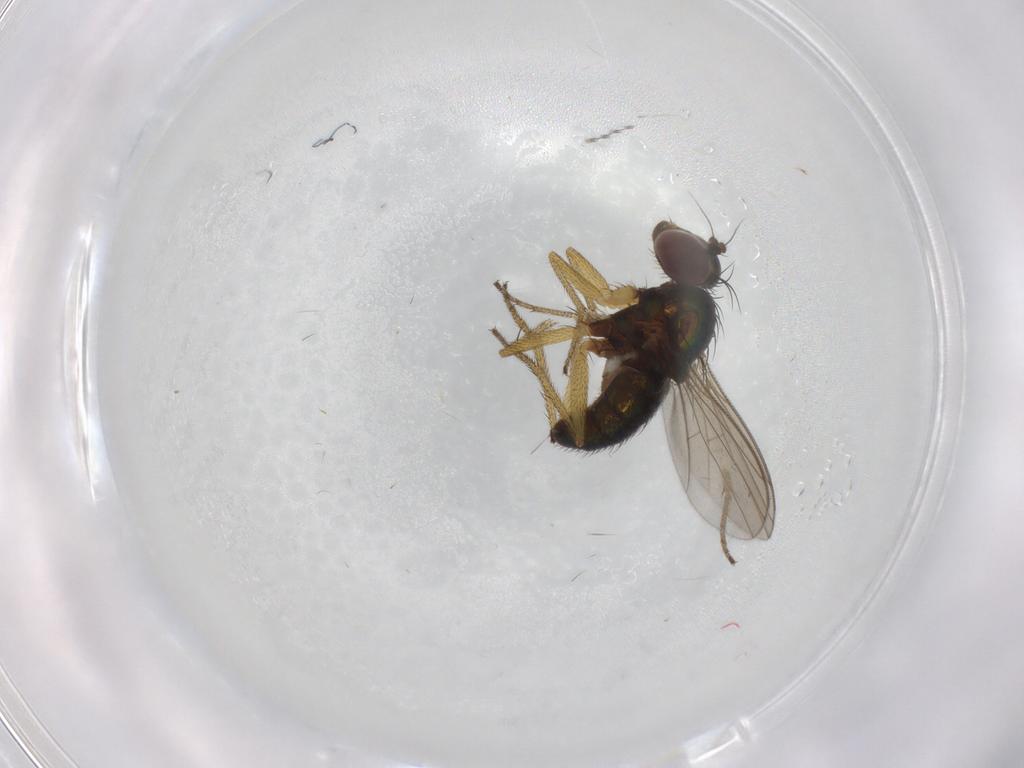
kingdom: Animalia
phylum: Arthropoda
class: Insecta
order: Diptera
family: Dolichopodidae
